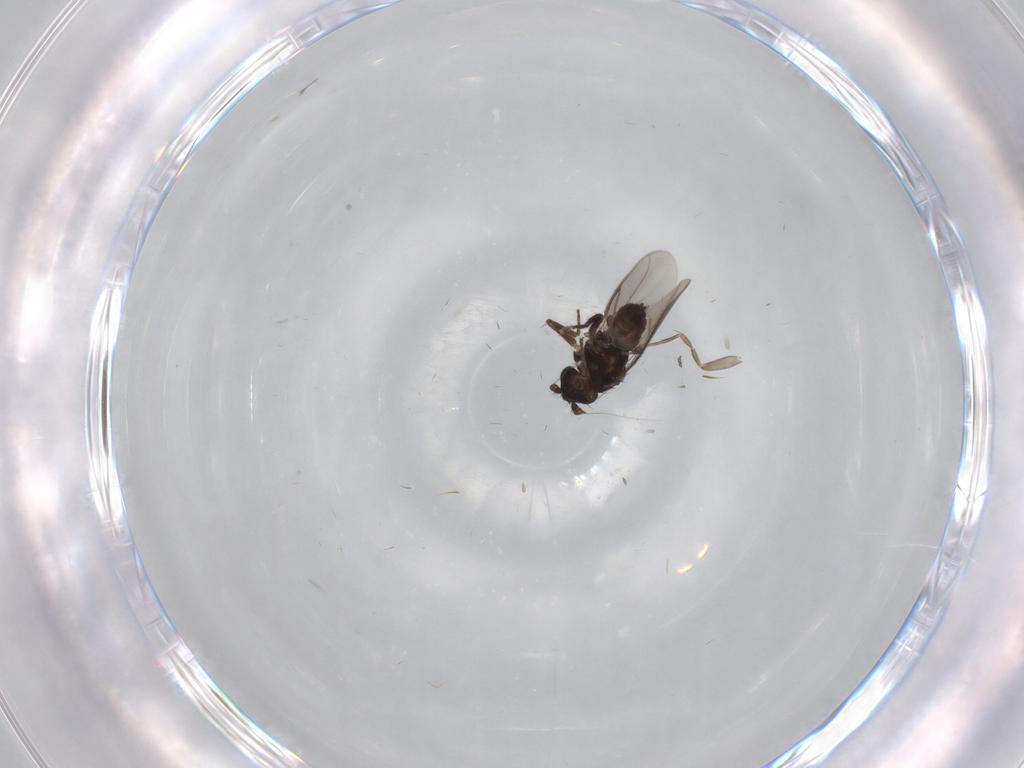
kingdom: Animalia
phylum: Arthropoda
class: Insecta
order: Diptera
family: Phoridae
